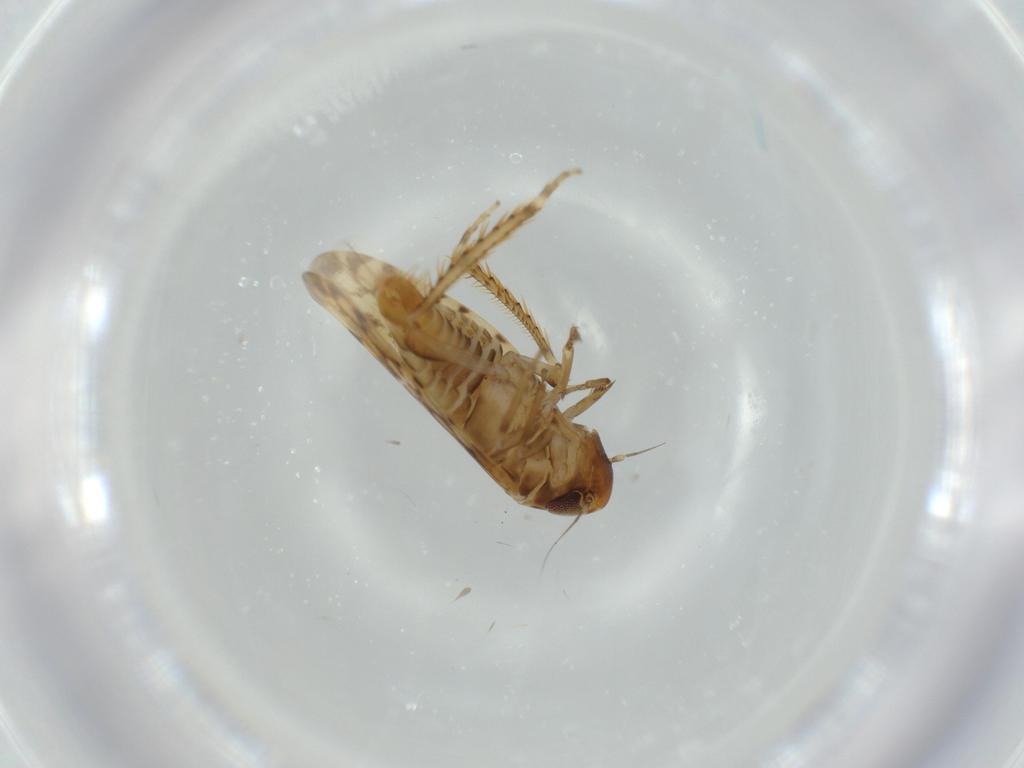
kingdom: Animalia
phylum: Arthropoda
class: Insecta
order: Hemiptera
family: Cicadellidae
